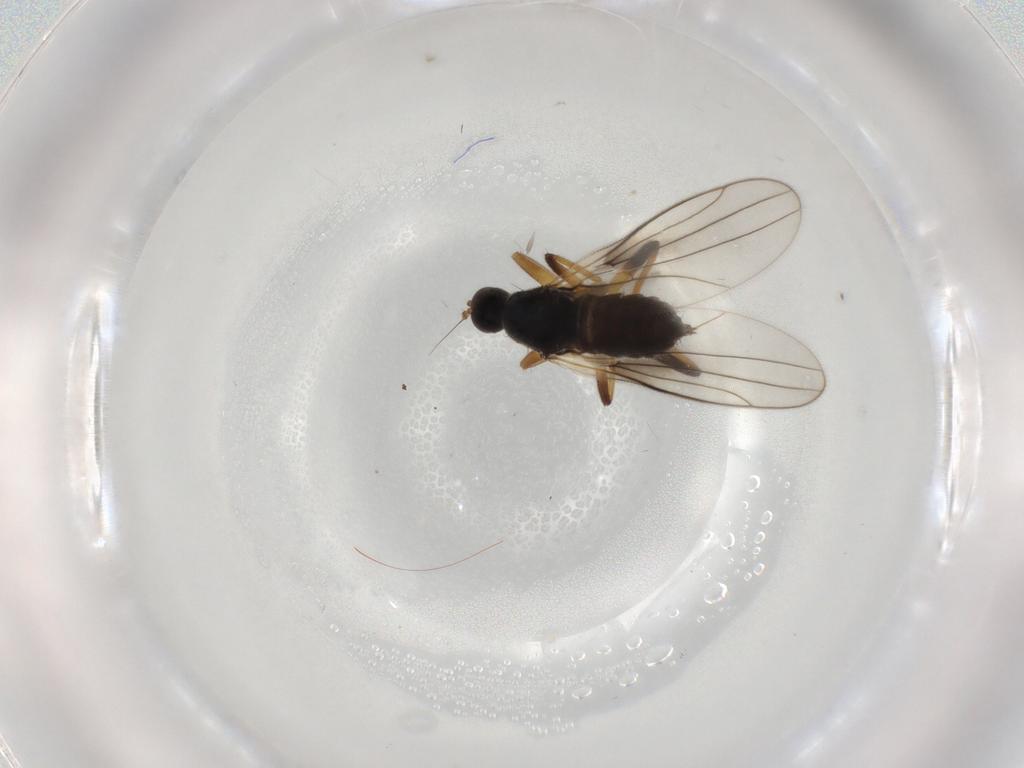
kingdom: Animalia
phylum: Arthropoda
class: Insecta
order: Diptera
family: Hybotidae
